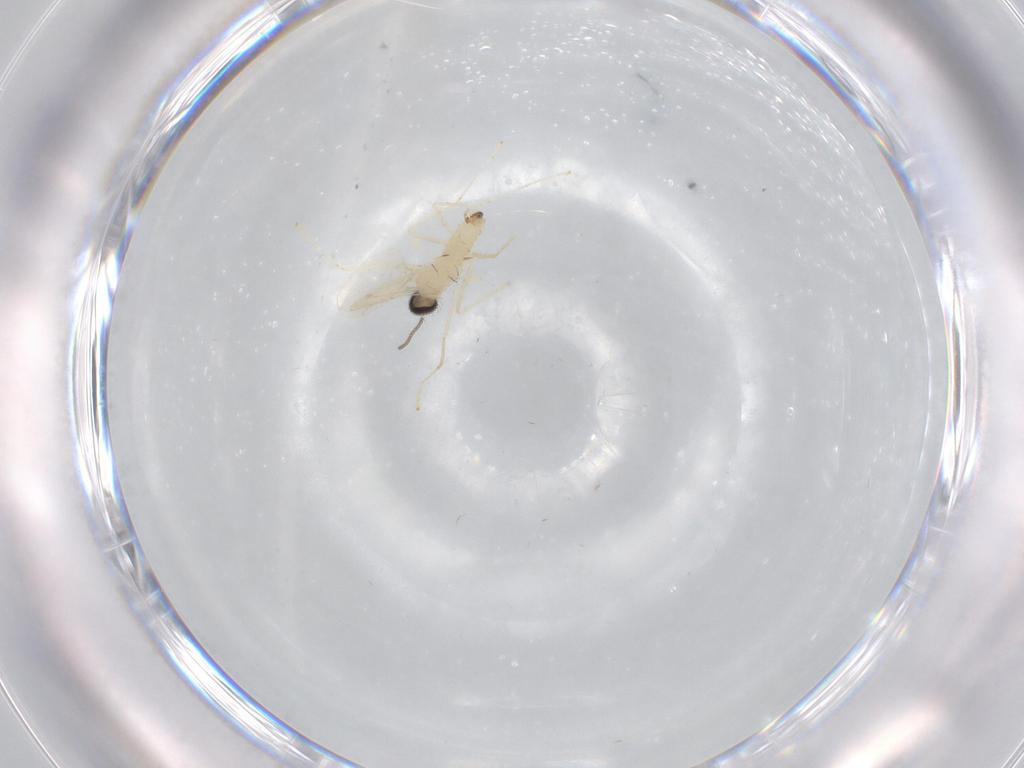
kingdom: Animalia
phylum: Arthropoda
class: Insecta
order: Diptera
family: Cecidomyiidae
